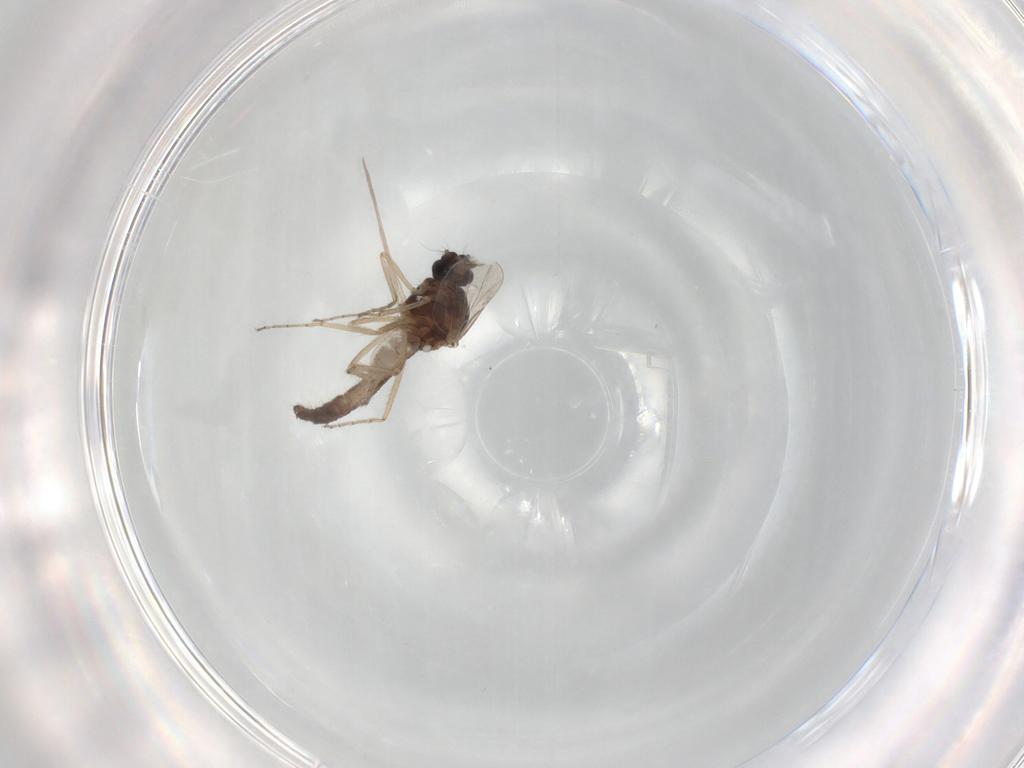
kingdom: Animalia
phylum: Arthropoda
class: Insecta
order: Diptera
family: Ceratopogonidae
